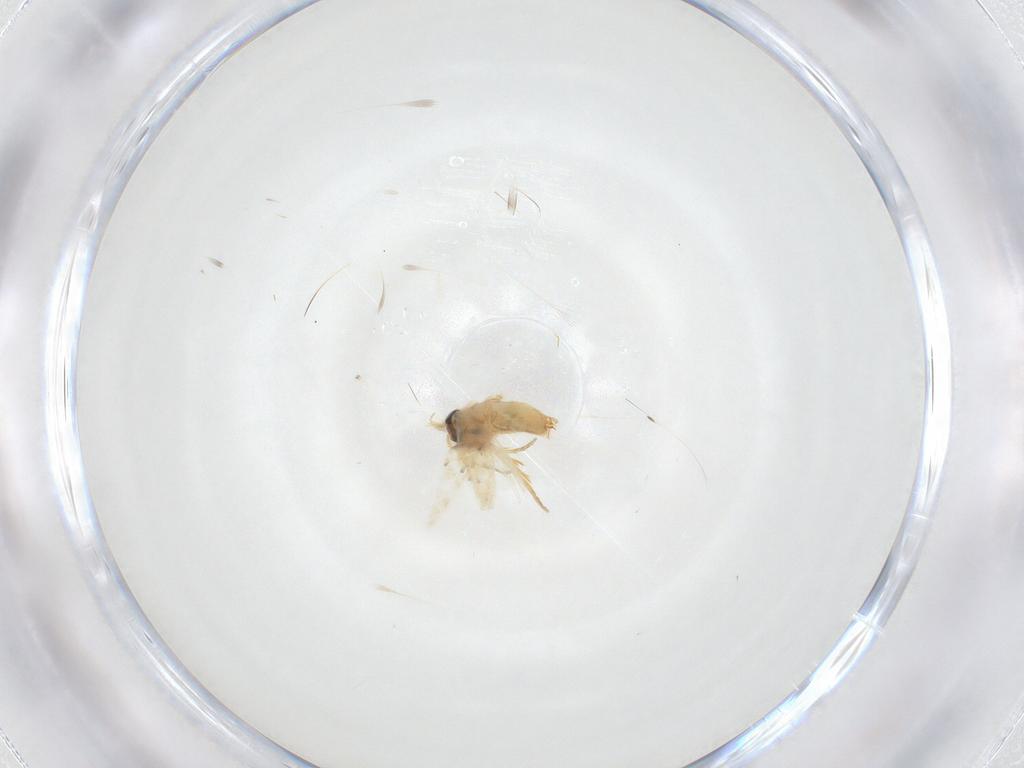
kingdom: Animalia
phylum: Arthropoda
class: Insecta
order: Lepidoptera
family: Crambidae
